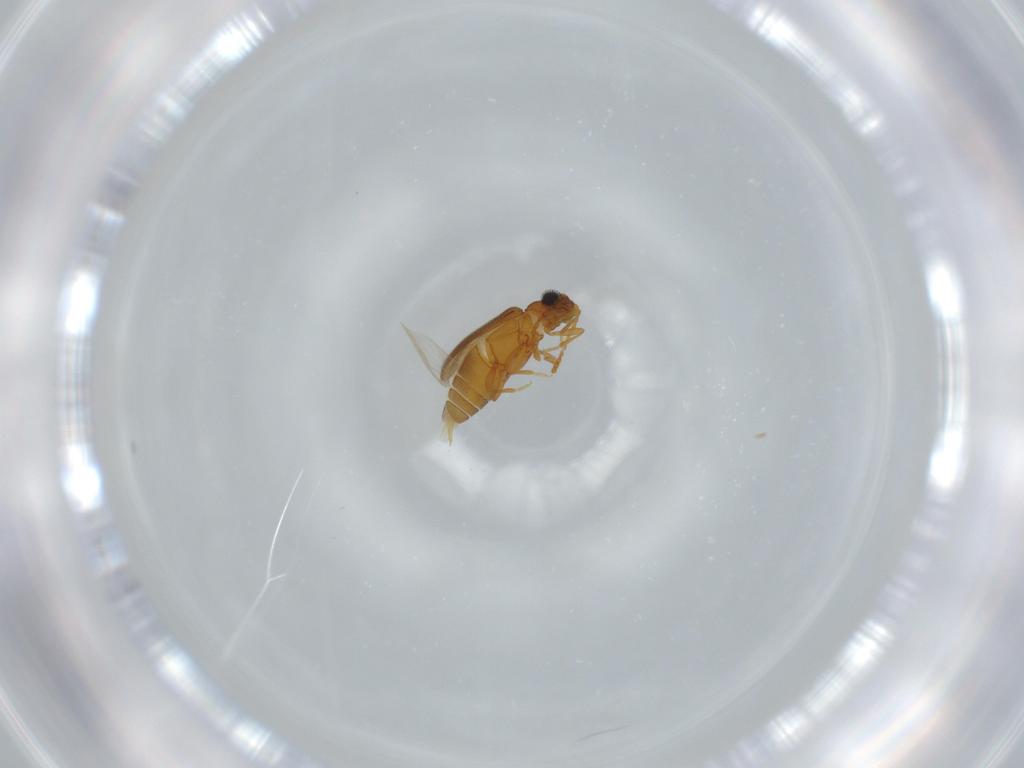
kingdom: Animalia
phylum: Arthropoda
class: Insecta
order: Coleoptera
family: Aderidae
